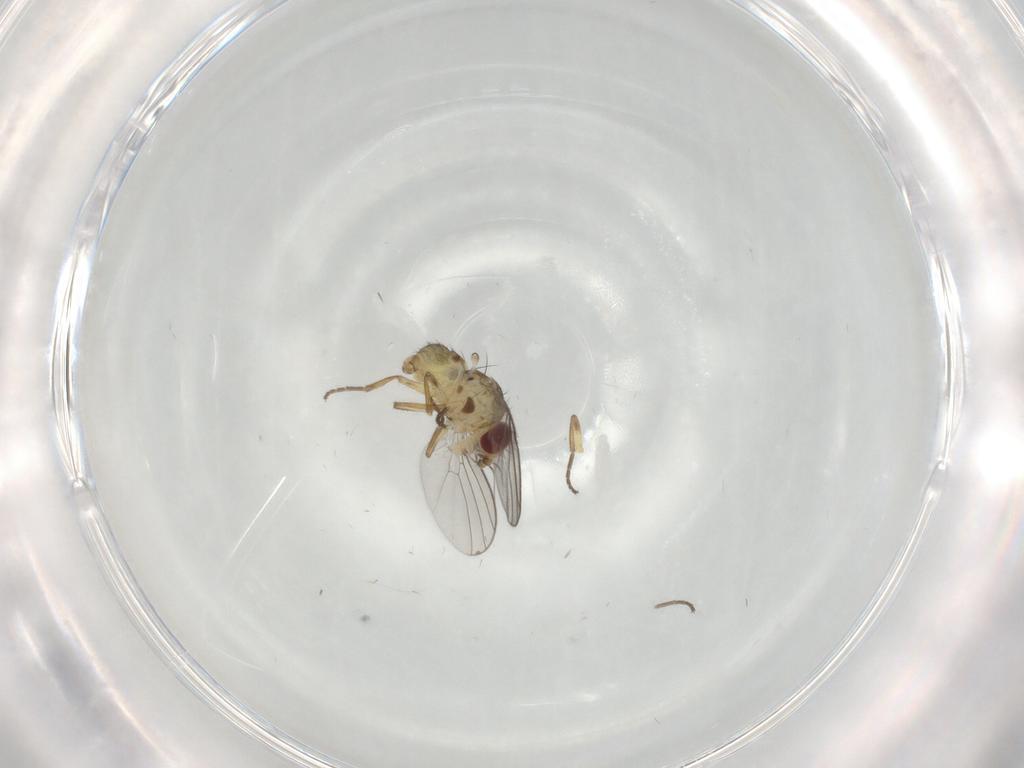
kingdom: Animalia
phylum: Arthropoda
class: Insecta
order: Diptera
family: Agromyzidae
